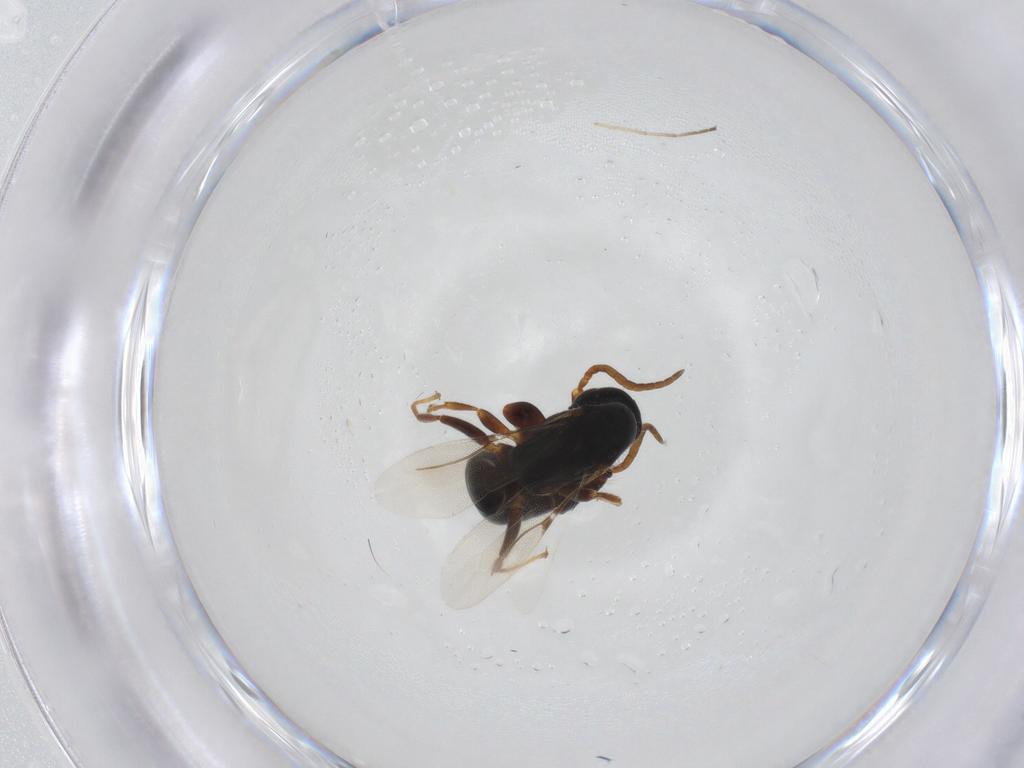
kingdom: Animalia
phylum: Arthropoda
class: Insecta
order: Hymenoptera
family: Bethylidae
